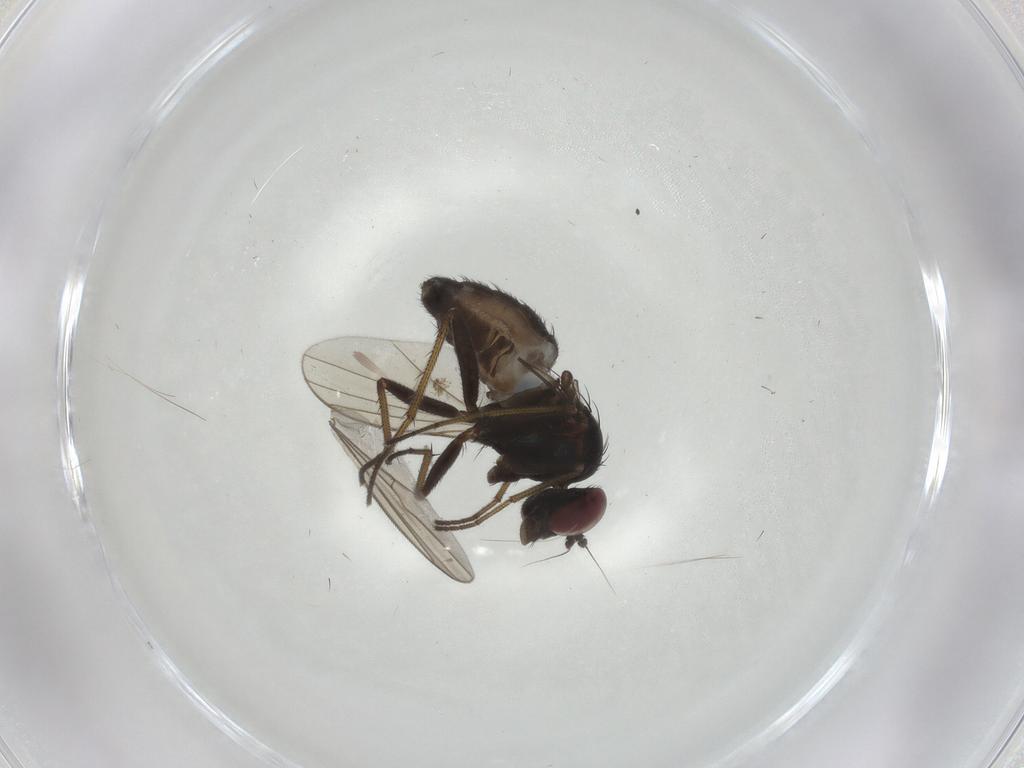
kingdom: Animalia
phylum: Arthropoda
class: Insecta
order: Diptera
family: Dolichopodidae
